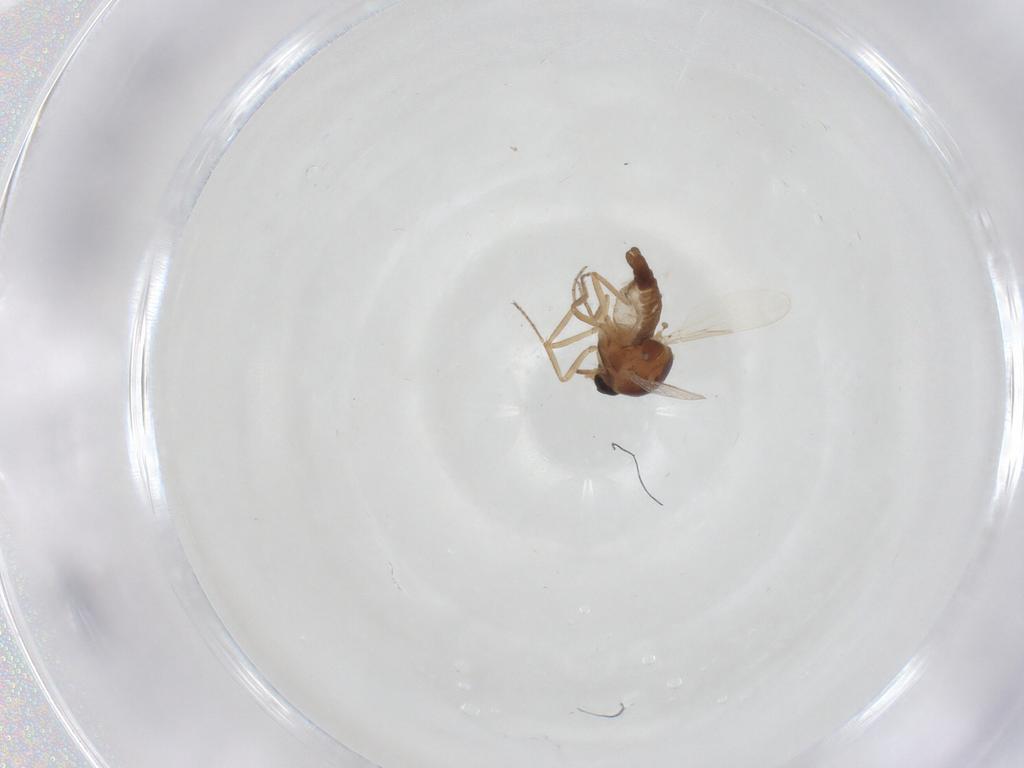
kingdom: Animalia
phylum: Arthropoda
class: Insecta
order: Diptera
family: Ceratopogonidae
